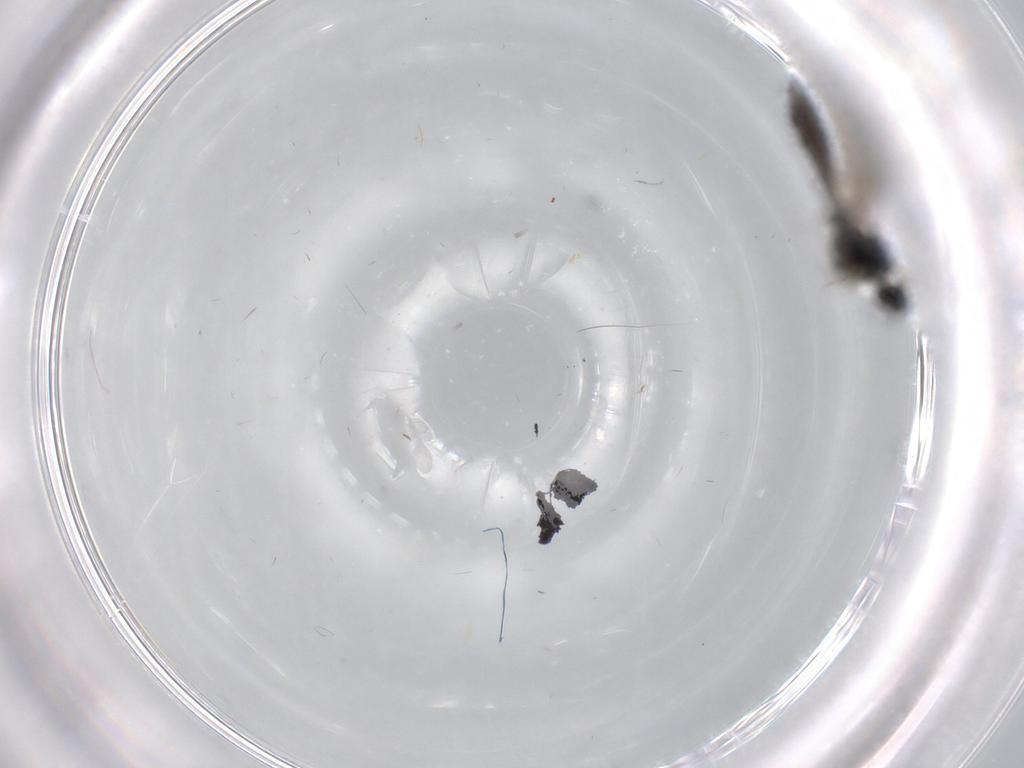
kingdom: Animalia
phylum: Arthropoda
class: Insecta
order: Diptera
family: Sciaridae
